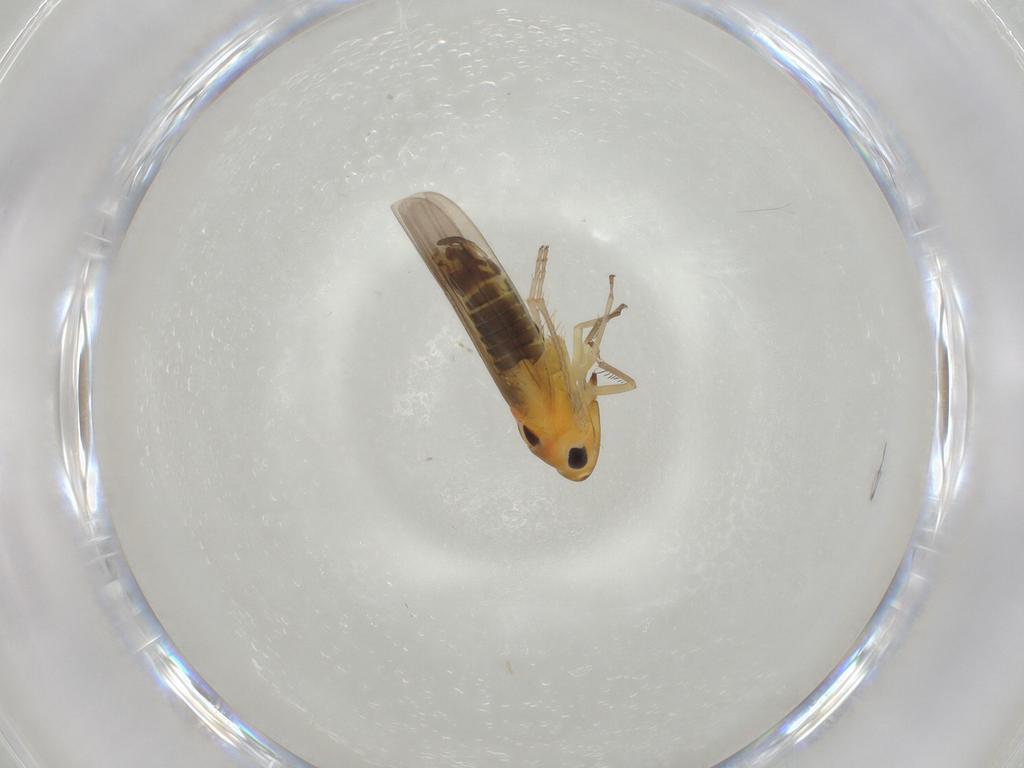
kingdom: Animalia
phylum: Arthropoda
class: Insecta
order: Hemiptera
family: Cicadellidae
